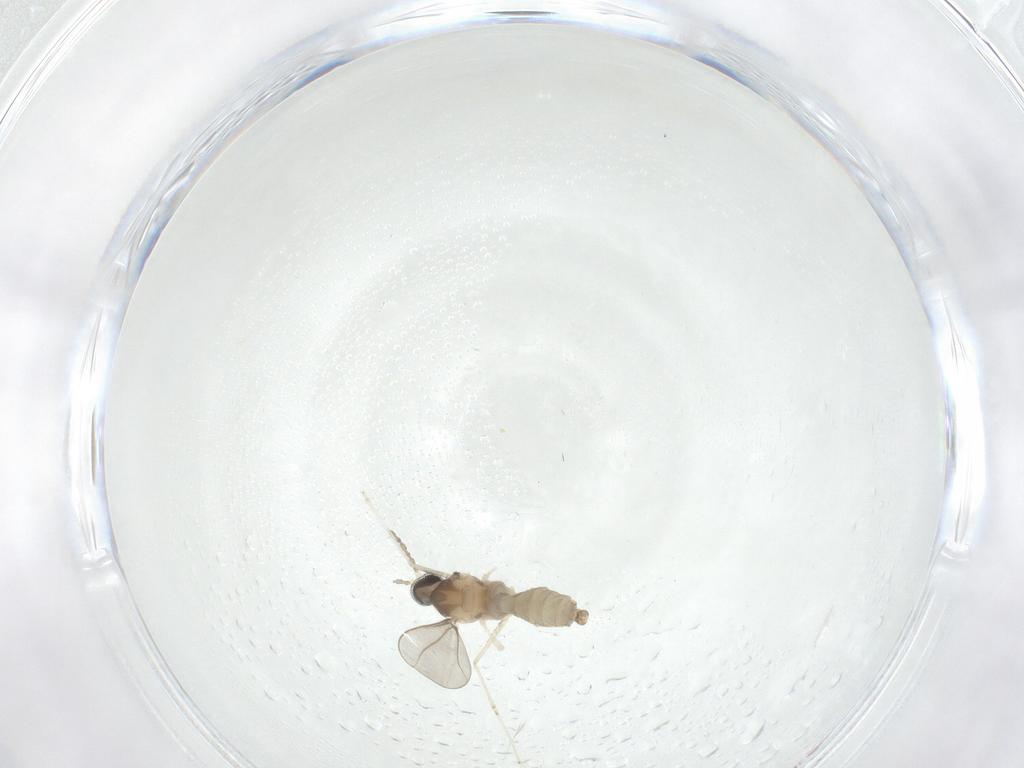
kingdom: Animalia
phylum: Arthropoda
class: Insecta
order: Diptera
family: Cecidomyiidae
